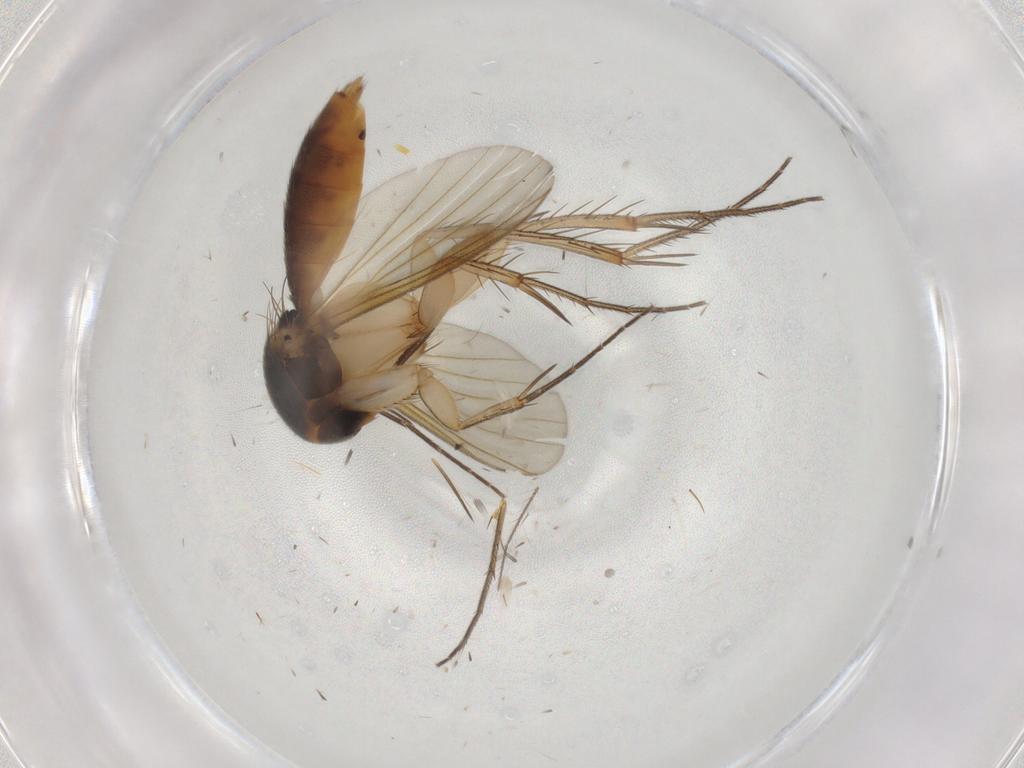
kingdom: Animalia
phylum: Arthropoda
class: Insecta
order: Diptera
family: Mycetophilidae
